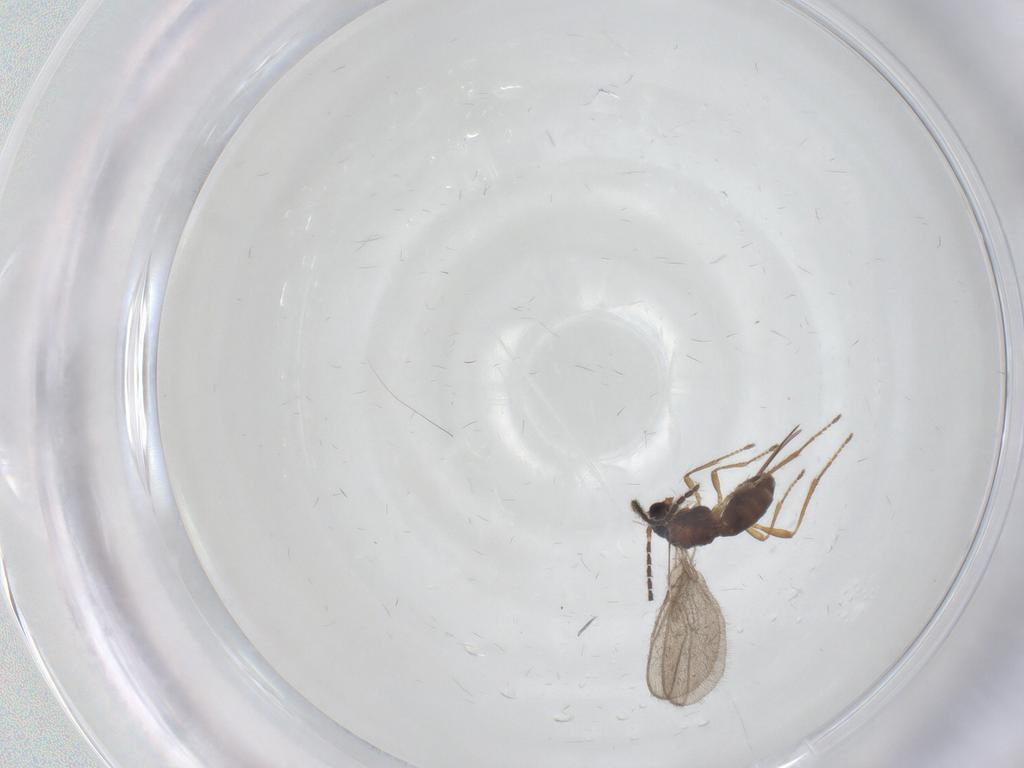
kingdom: Animalia
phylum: Arthropoda
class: Insecta
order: Hymenoptera
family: Braconidae
